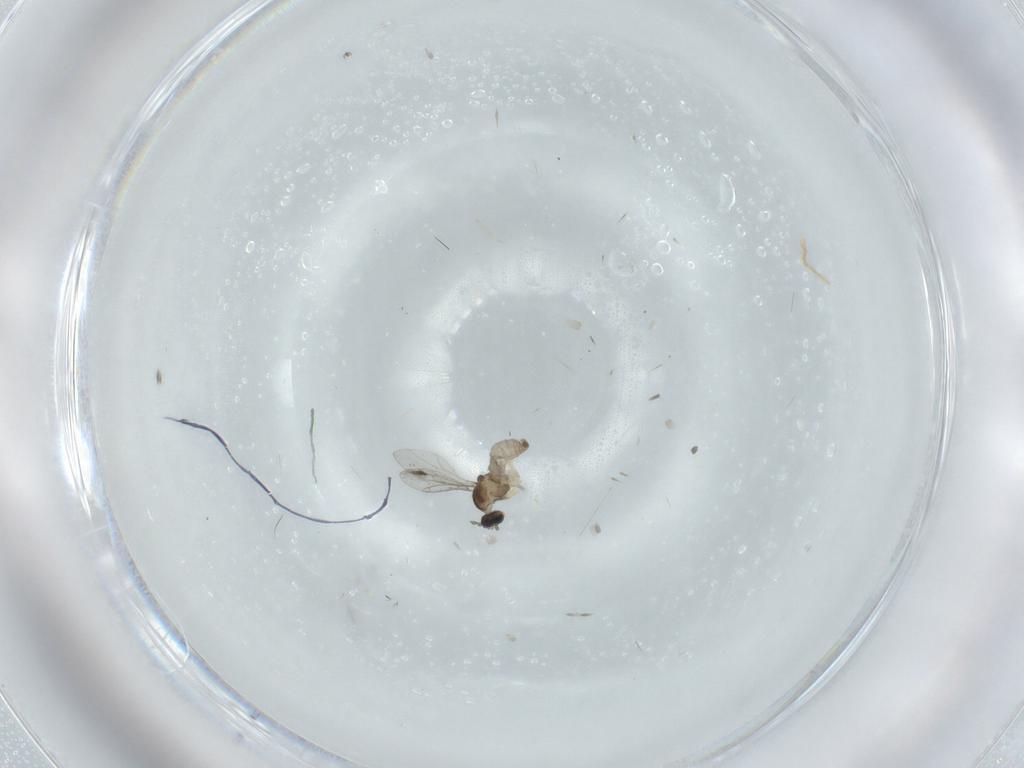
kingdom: Animalia
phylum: Arthropoda
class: Insecta
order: Diptera
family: Cecidomyiidae
